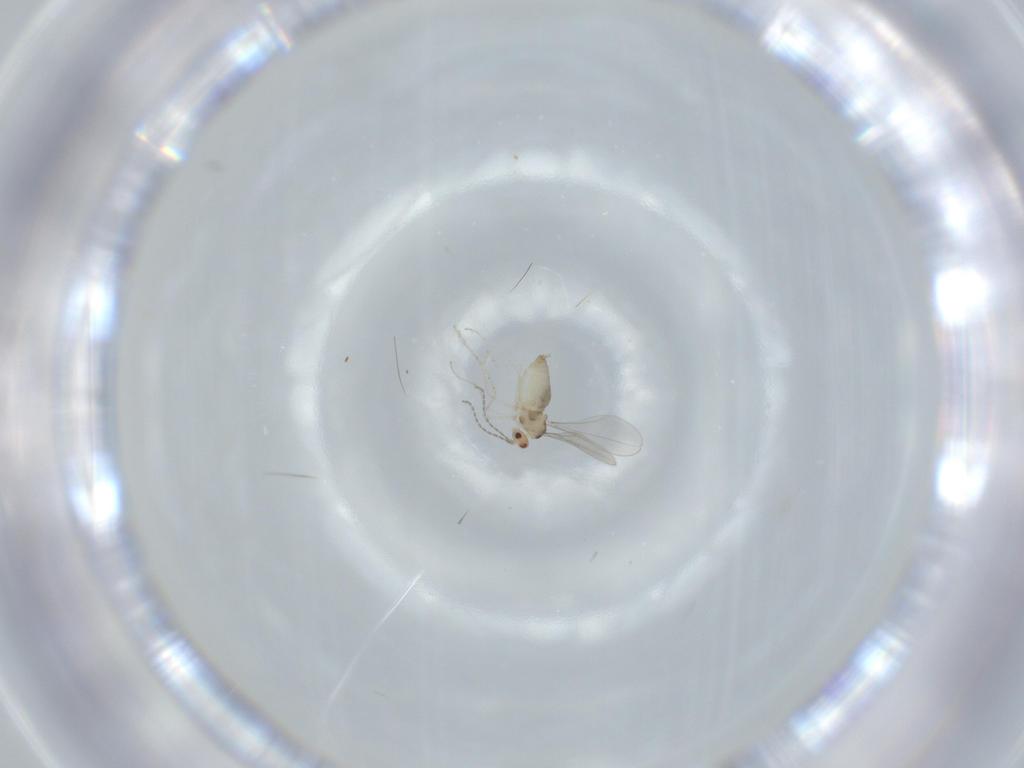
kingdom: Animalia
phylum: Arthropoda
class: Insecta
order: Diptera
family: Cecidomyiidae
